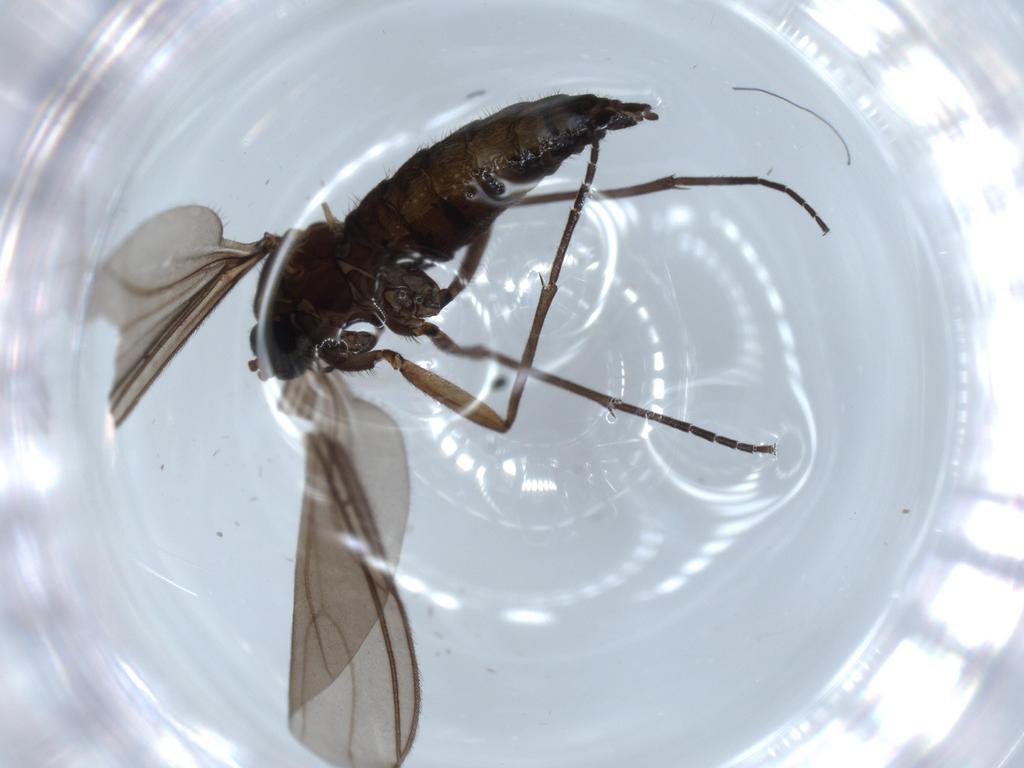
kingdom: Animalia
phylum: Arthropoda
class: Insecta
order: Diptera
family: Sciaridae
